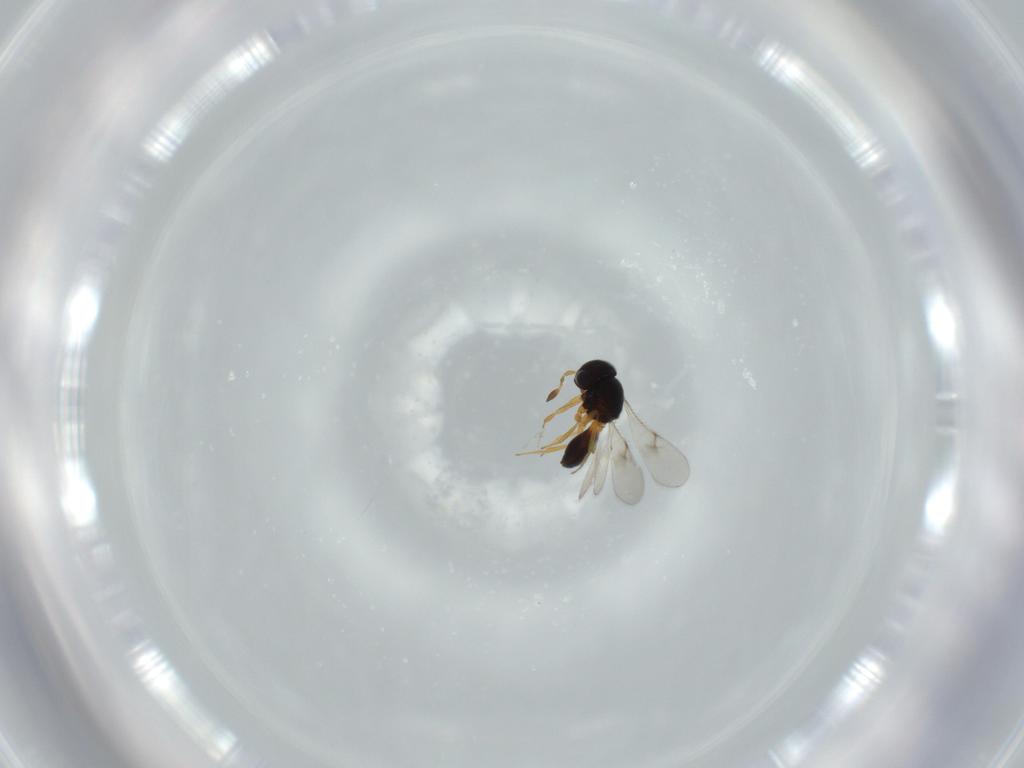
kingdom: Animalia
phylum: Arthropoda
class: Insecta
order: Hymenoptera
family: Scelionidae
